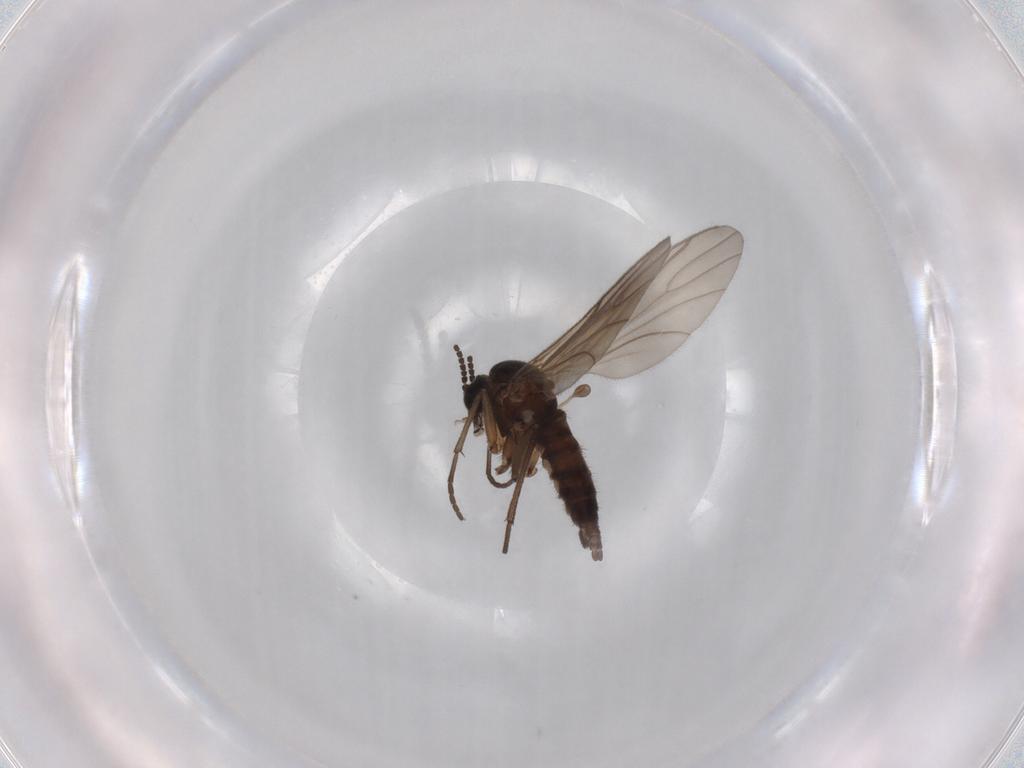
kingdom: Animalia
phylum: Arthropoda
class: Insecta
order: Diptera
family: Sciaridae
